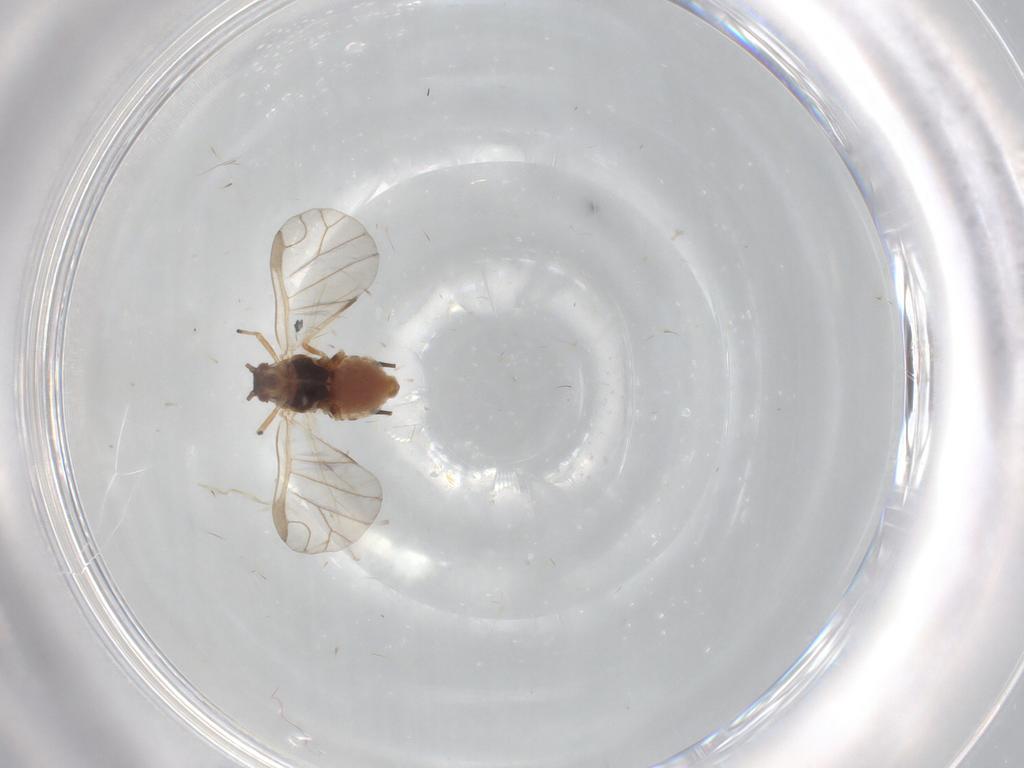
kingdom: Animalia
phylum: Arthropoda
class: Insecta
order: Hemiptera
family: Aphididae
